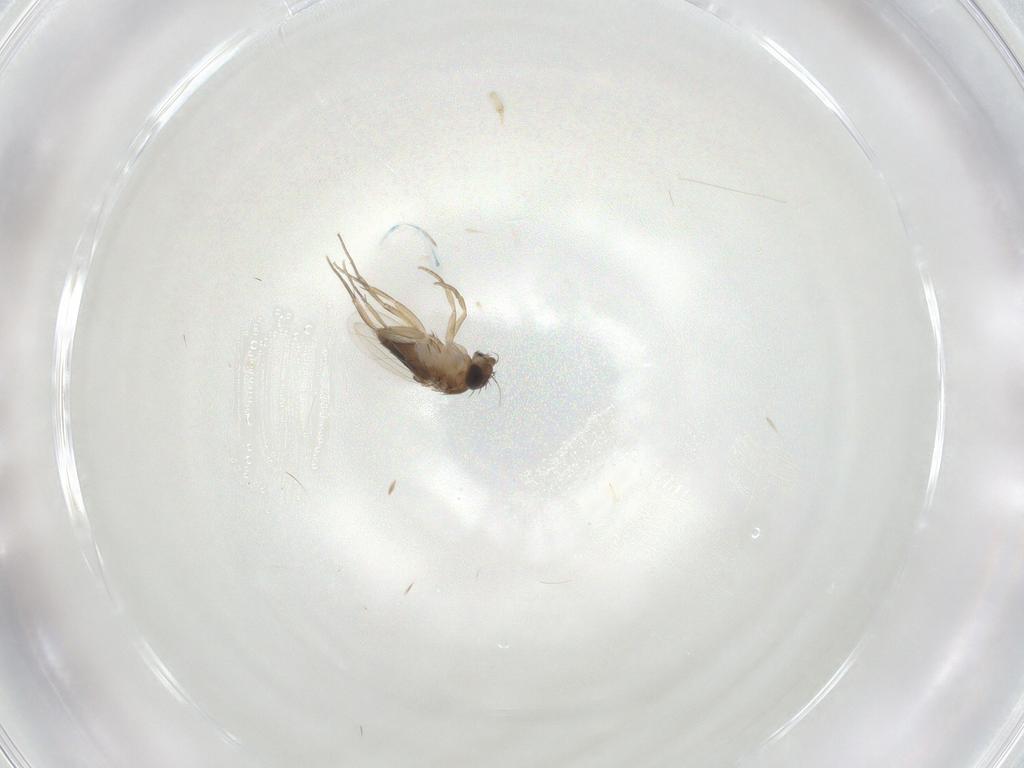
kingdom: Animalia
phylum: Arthropoda
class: Insecta
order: Diptera
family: Phoridae
